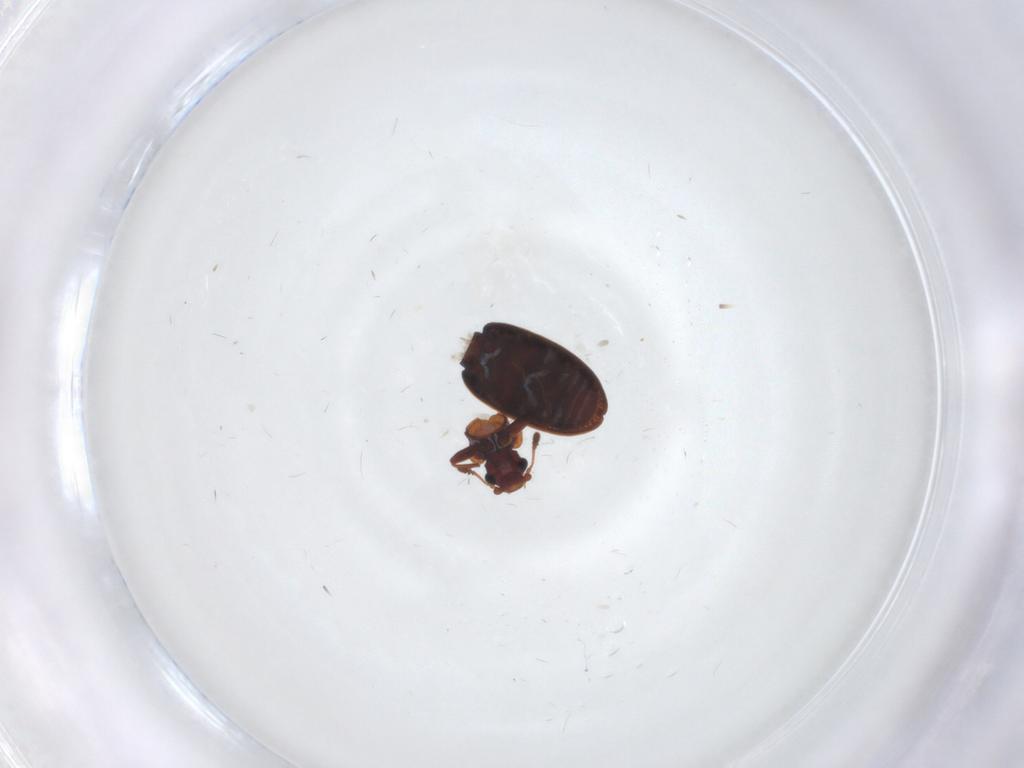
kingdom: Animalia
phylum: Arthropoda
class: Insecta
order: Coleoptera
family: Latridiidae
